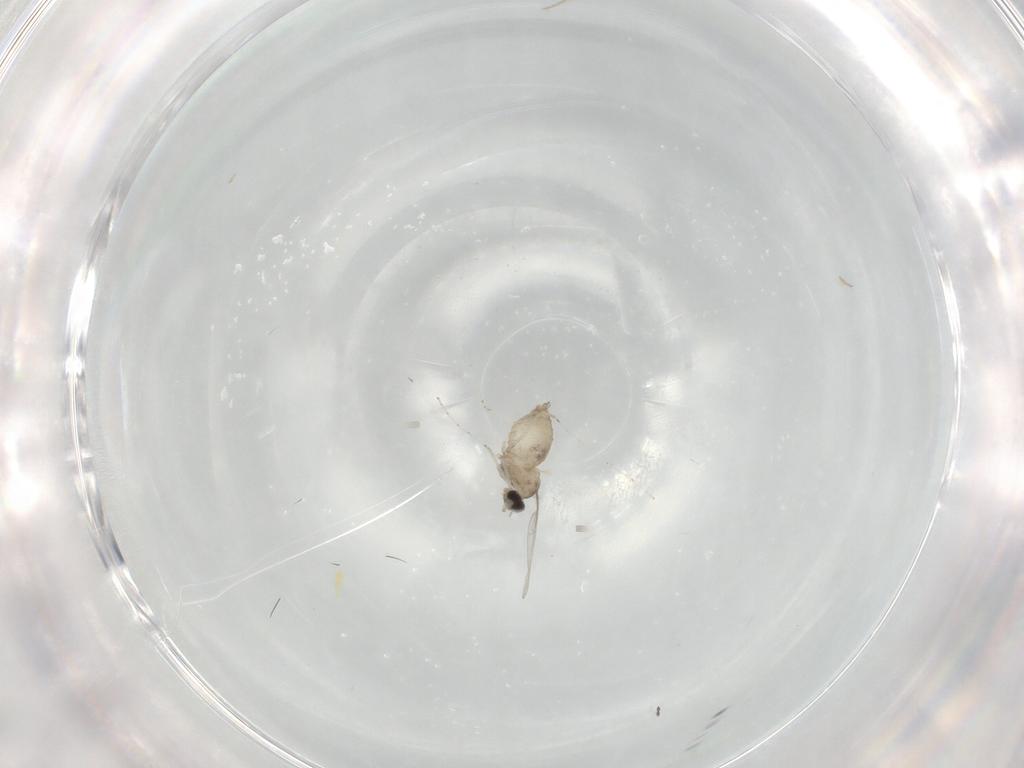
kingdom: Animalia
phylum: Arthropoda
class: Insecta
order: Diptera
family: Cecidomyiidae
